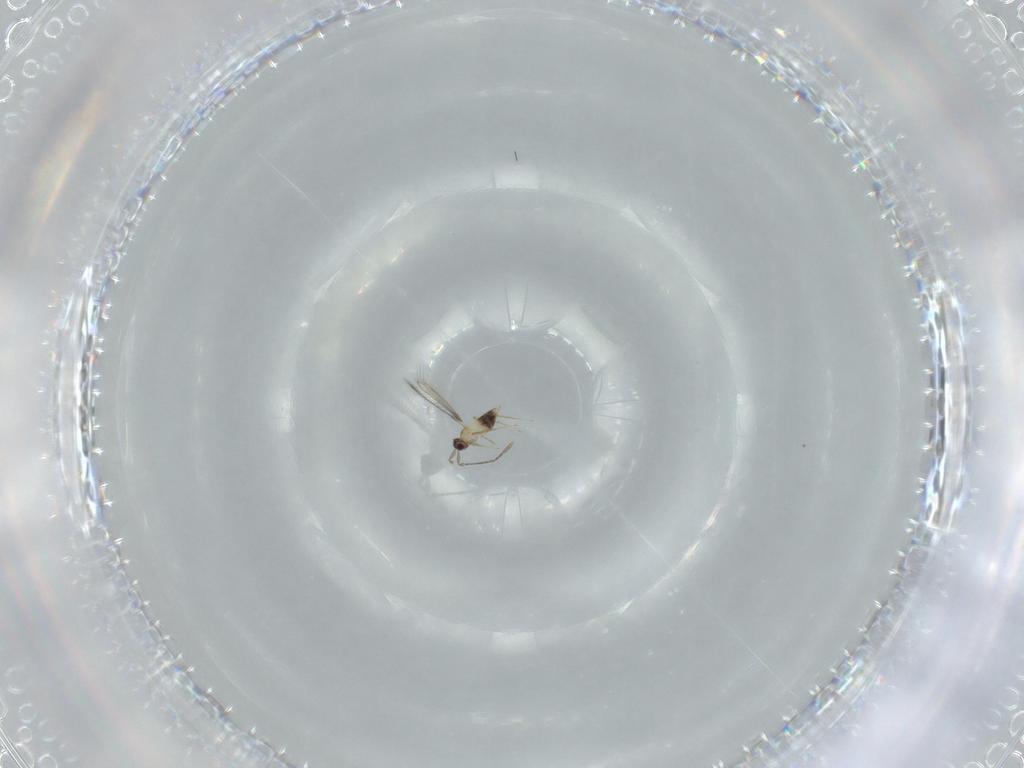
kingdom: Animalia
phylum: Arthropoda
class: Insecta
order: Hymenoptera
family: Mymaridae
